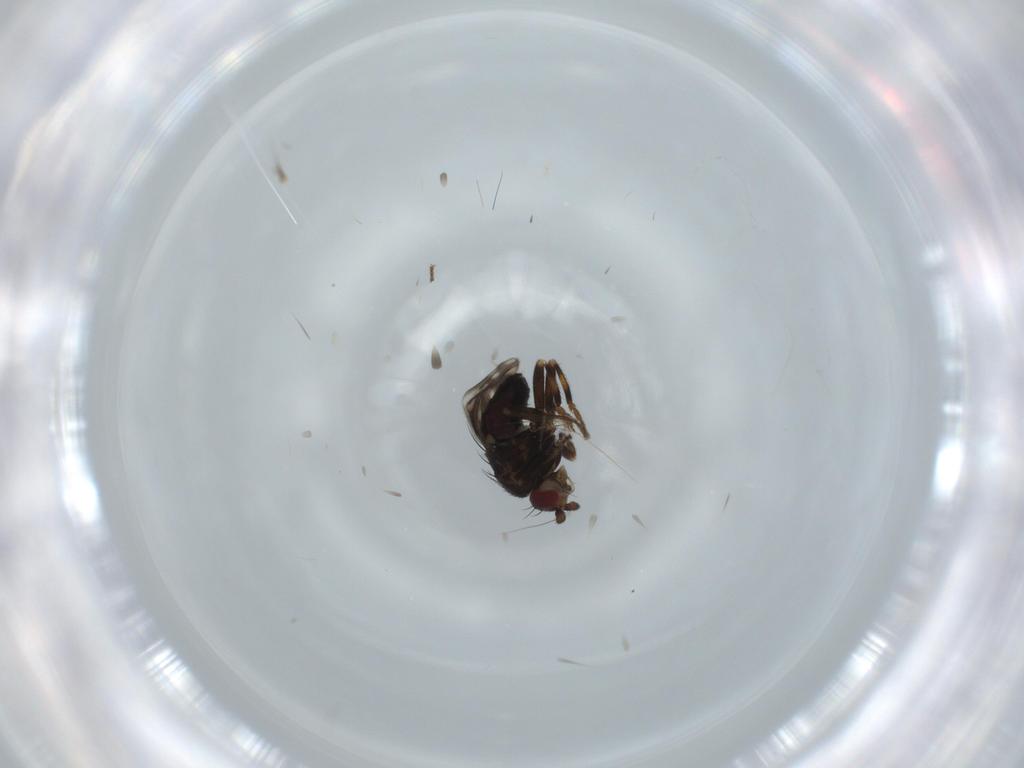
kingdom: Animalia
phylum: Arthropoda
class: Insecta
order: Diptera
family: Sphaeroceridae
